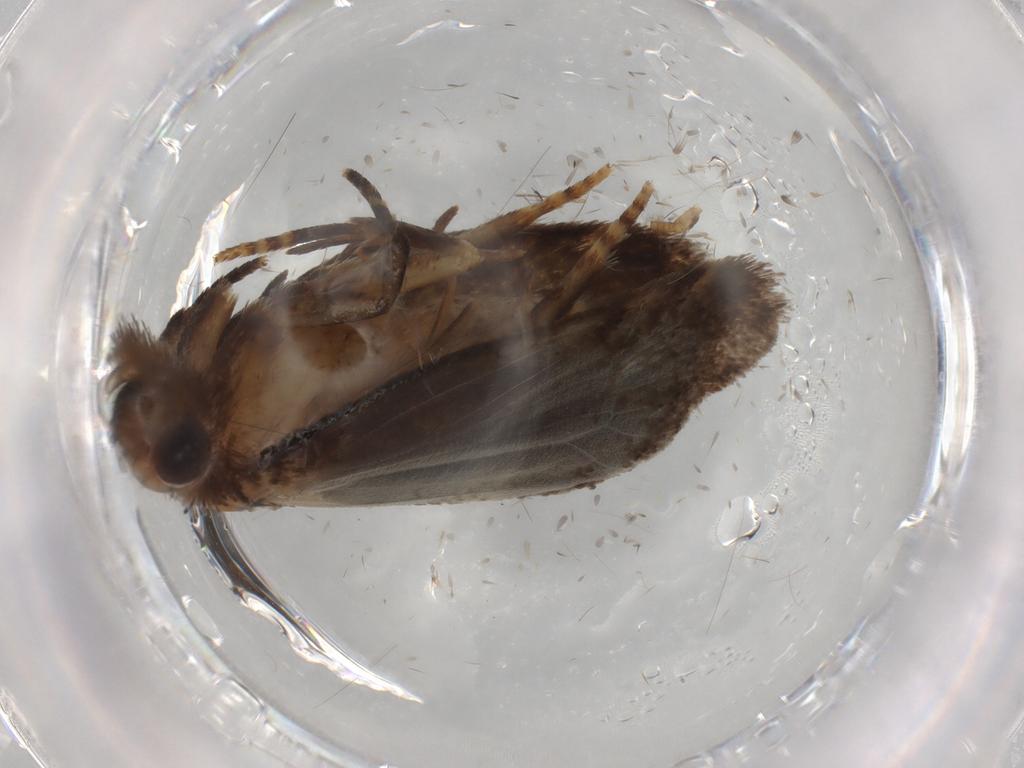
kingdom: Animalia
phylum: Arthropoda
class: Insecta
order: Lepidoptera
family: Tineidae
